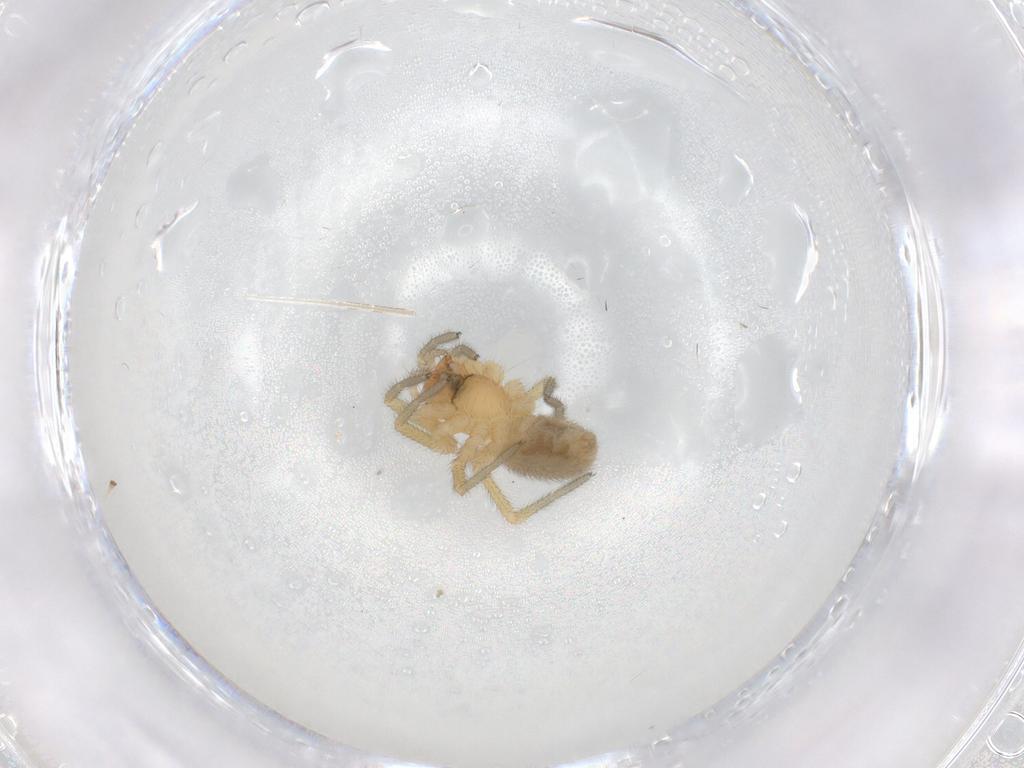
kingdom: Animalia
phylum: Arthropoda
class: Arachnida
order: Araneae
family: Linyphiidae
